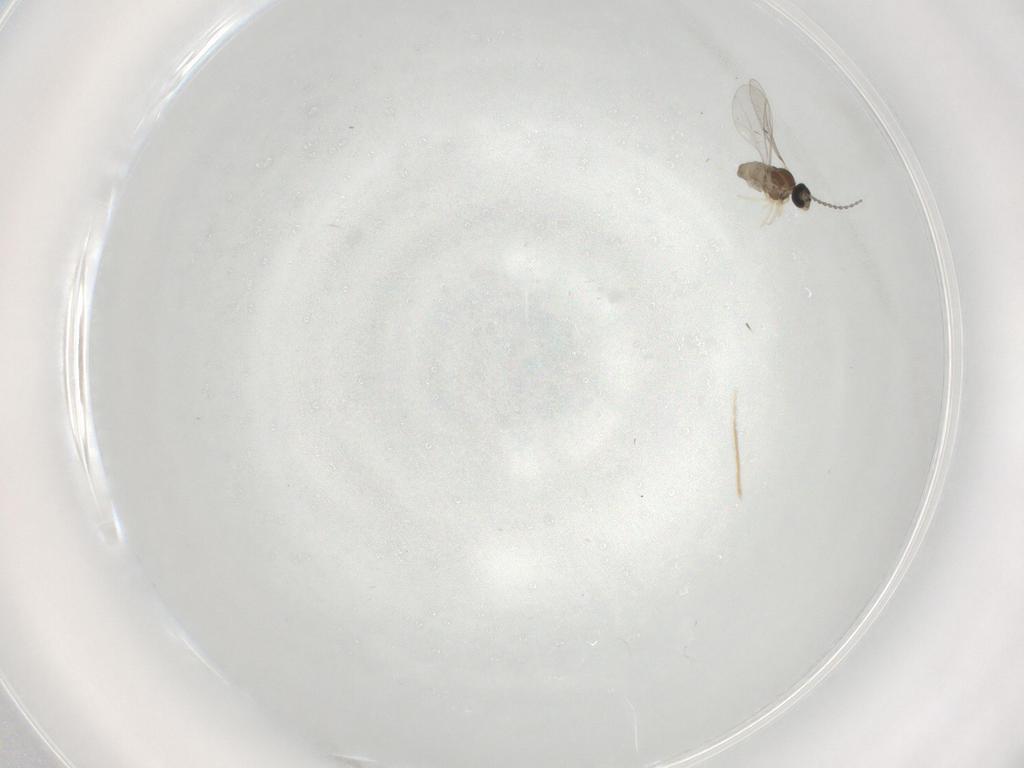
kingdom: Animalia
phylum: Arthropoda
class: Insecta
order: Diptera
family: Cecidomyiidae
